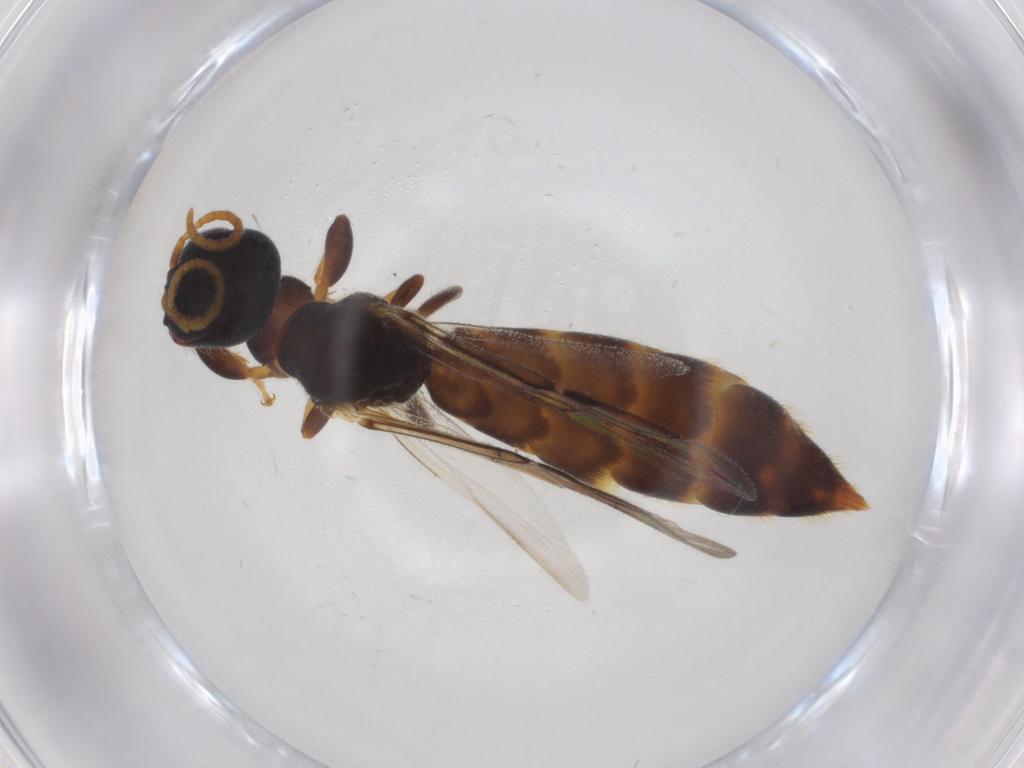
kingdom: Animalia
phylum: Arthropoda
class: Insecta
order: Hymenoptera
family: Scolebythidae
